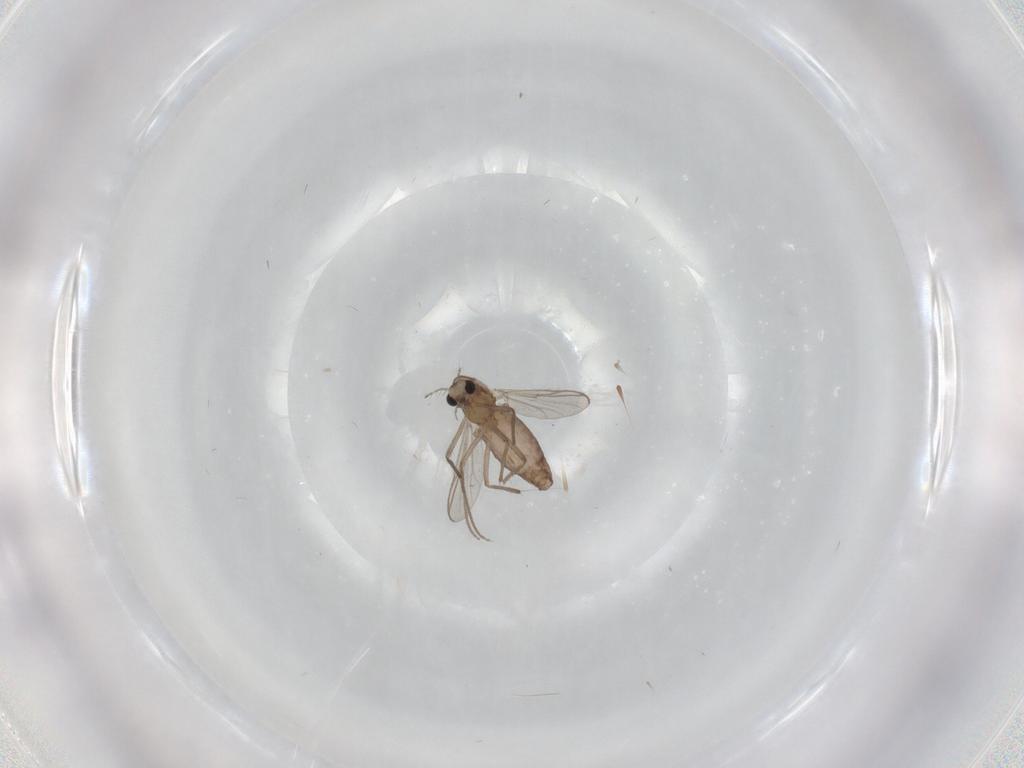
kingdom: Animalia
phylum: Arthropoda
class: Insecta
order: Diptera
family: Chironomidae
